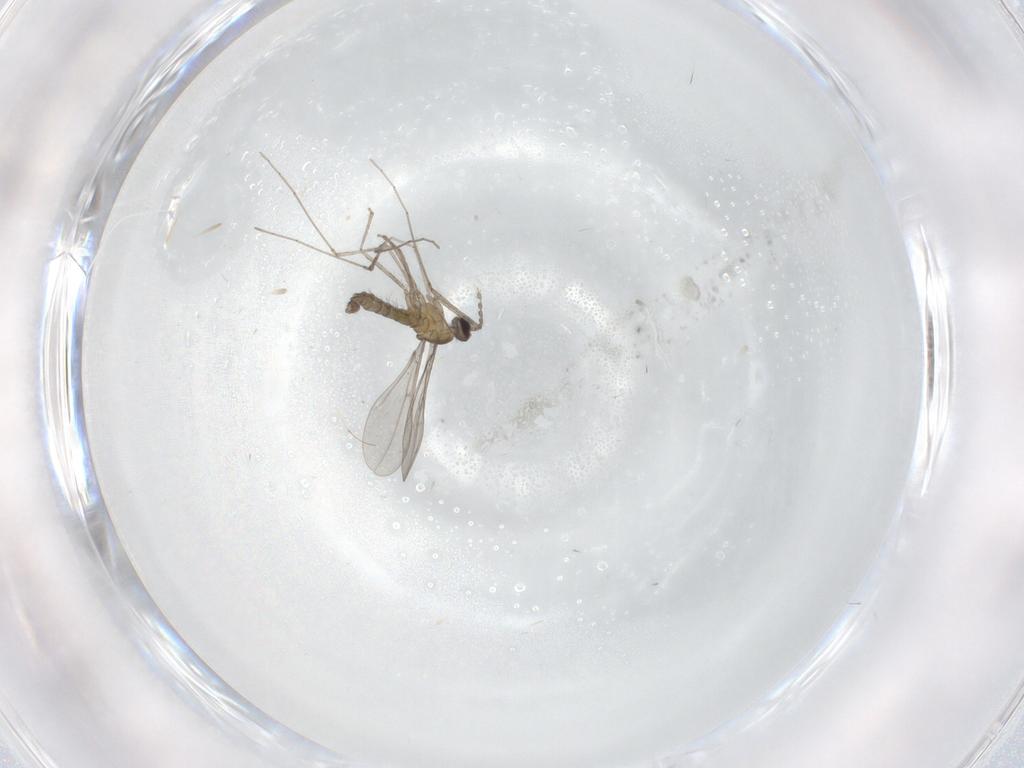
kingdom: Animalia
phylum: Arthropoda
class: Insecta
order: Diptera
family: Cecidomyiidae
